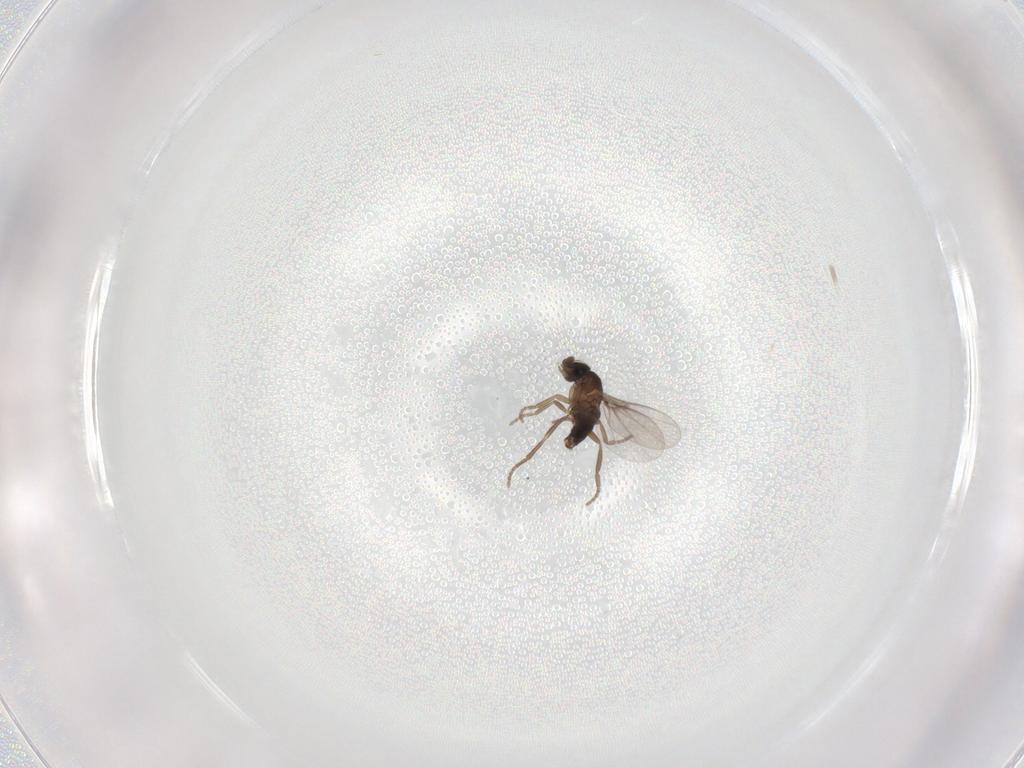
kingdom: Animalia
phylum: Arthropoda
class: Insecta
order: Diptera
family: Phoridae
